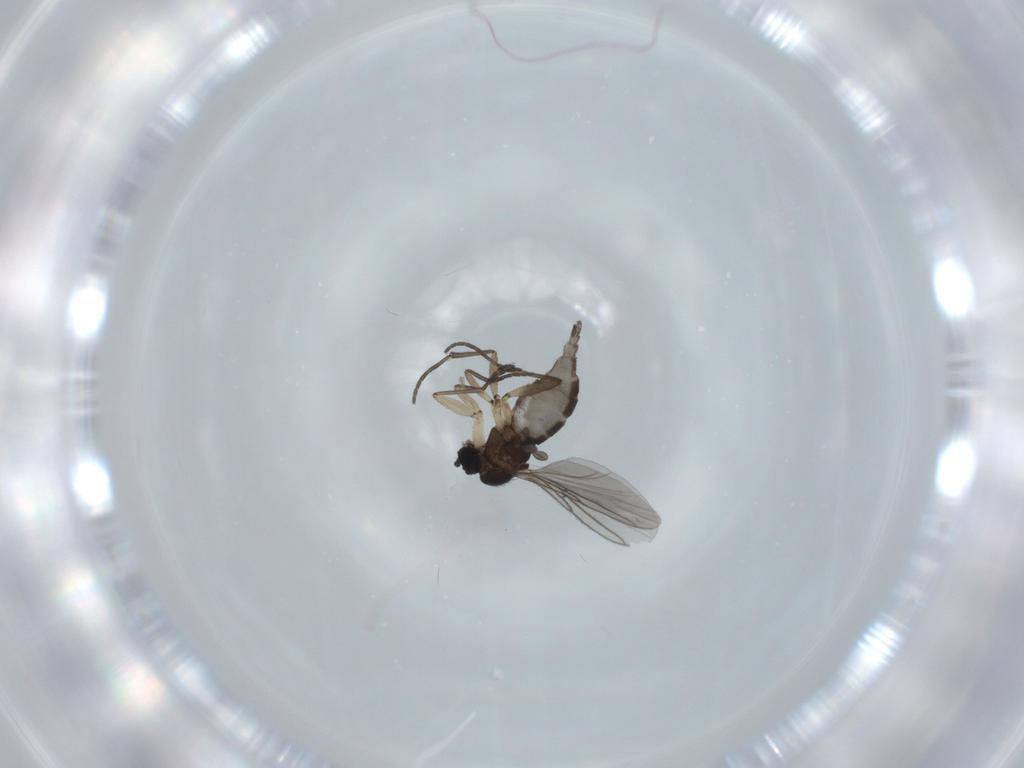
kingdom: Animalia
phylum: Arthropoda
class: Insecta
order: Diptera
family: Sciaridae
